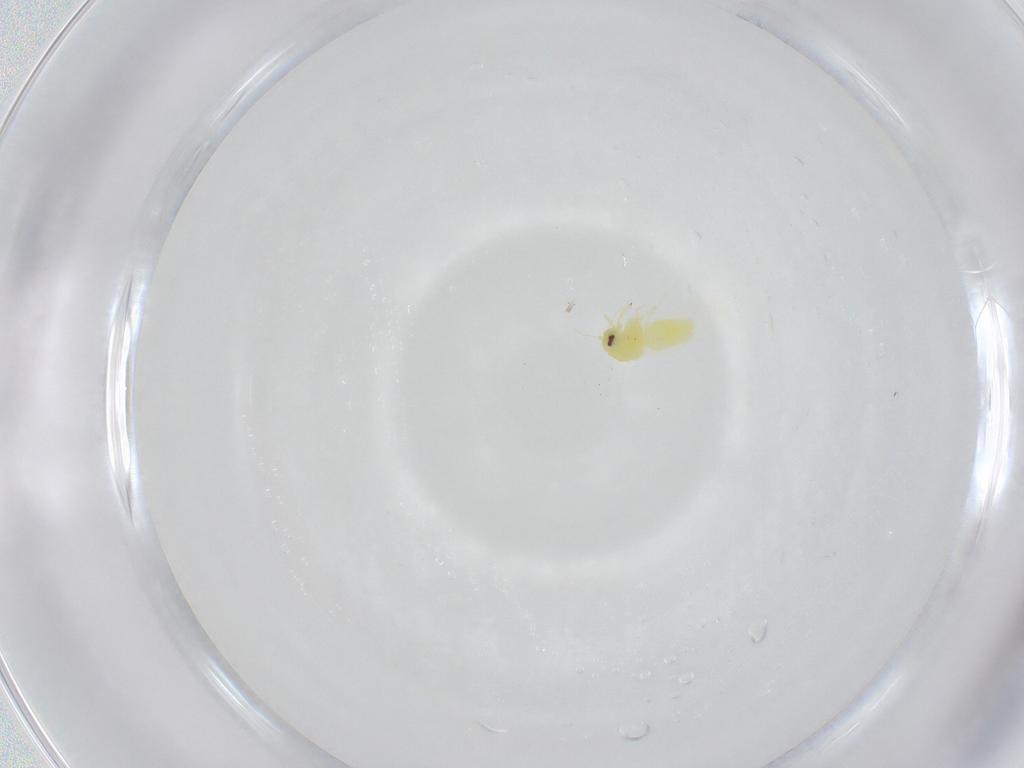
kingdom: Animalia
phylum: Arthropoda
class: Insecta
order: Hemiptera
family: Aleyrodidae
